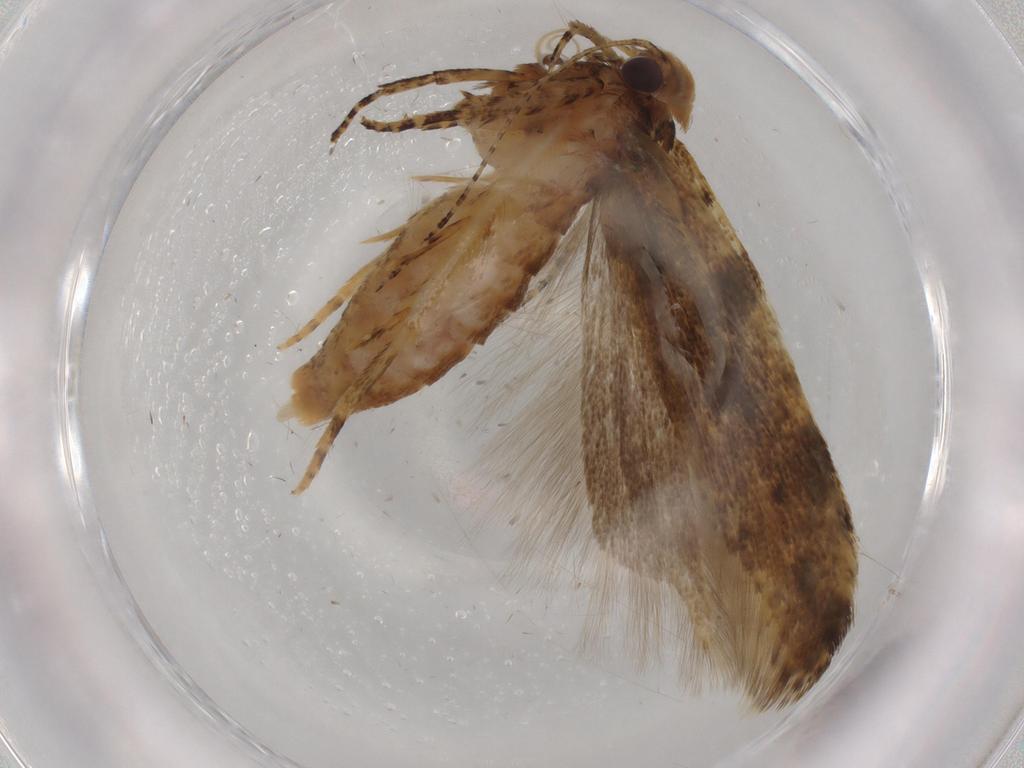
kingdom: Animalia
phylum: Arthropoda
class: Insecta
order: Lepidoptera
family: Gelechiidae
